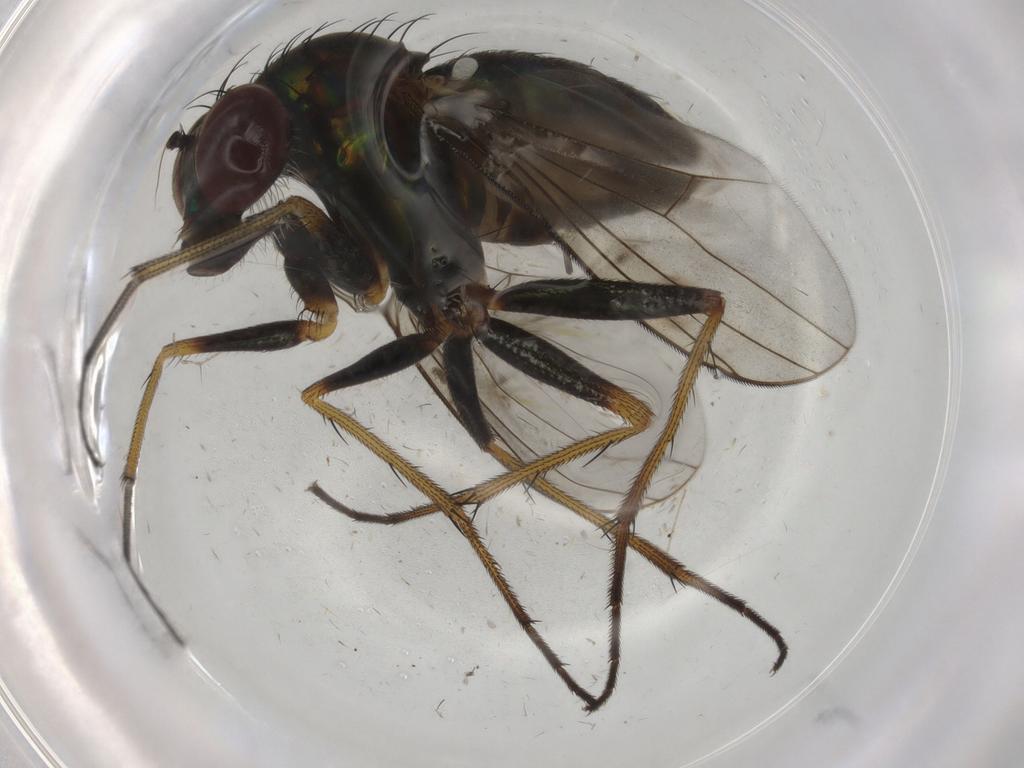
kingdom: Animalia
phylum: Arthropoda
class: Insecta
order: Diptera
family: Dolichopodidae
